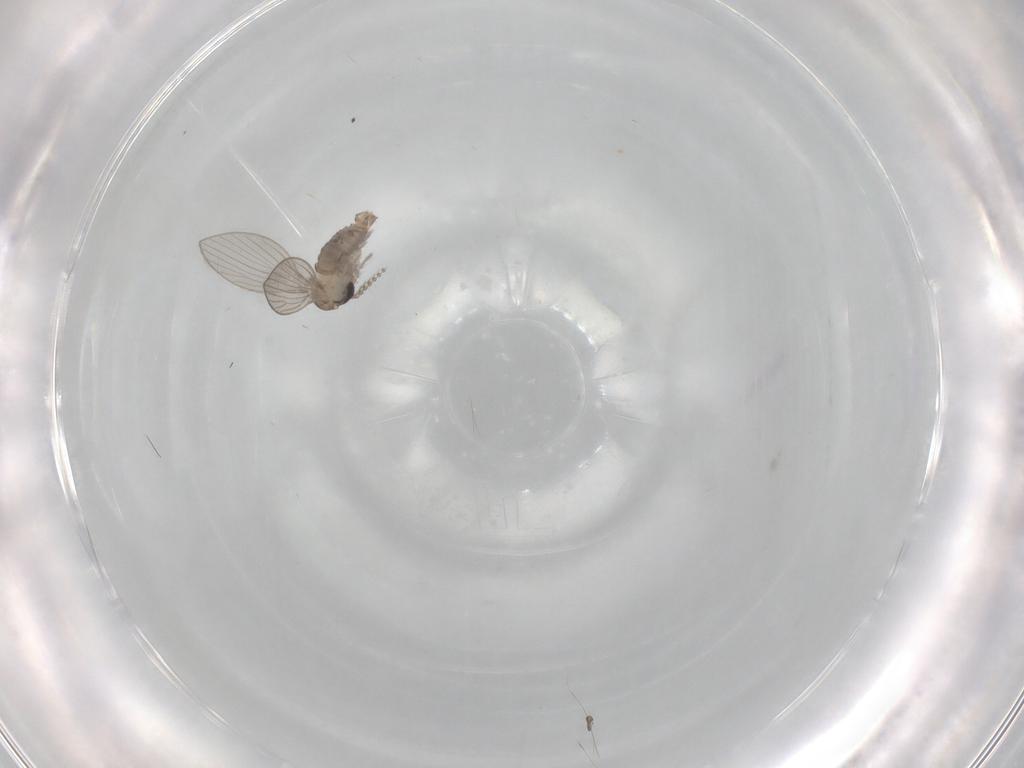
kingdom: Animalia
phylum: Arthropoda
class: Insecta
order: Diptera
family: Psychodidae
